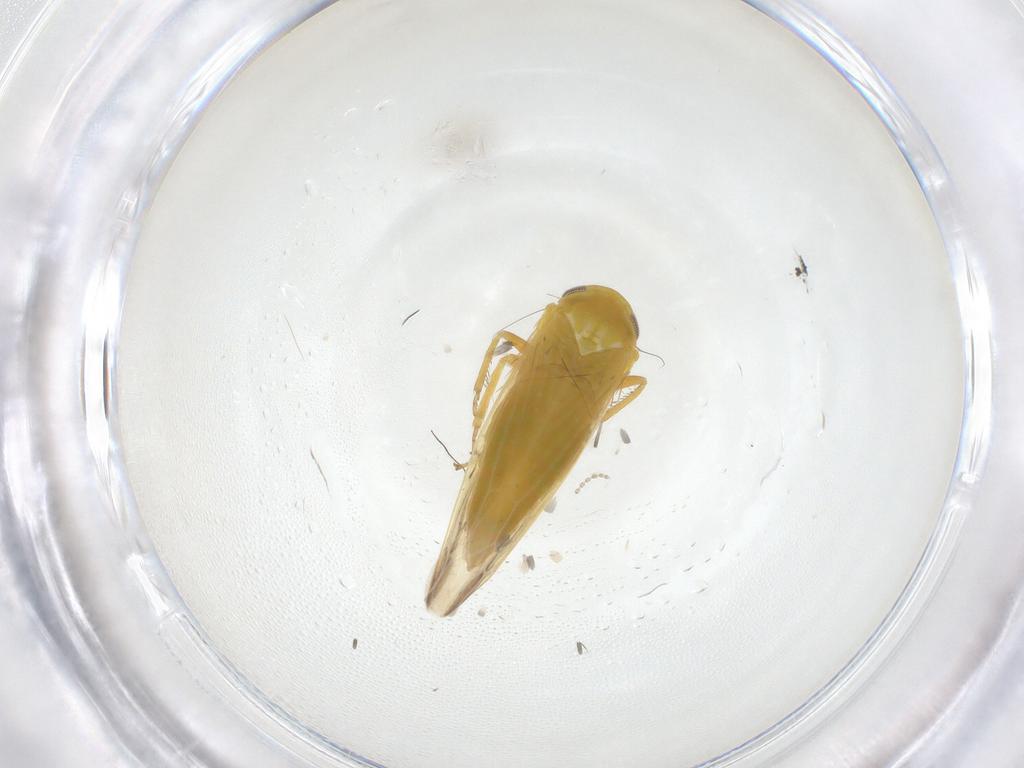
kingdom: Animalia
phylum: Arthropoda
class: Insecta
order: Hemiptera
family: Cicadellidae
